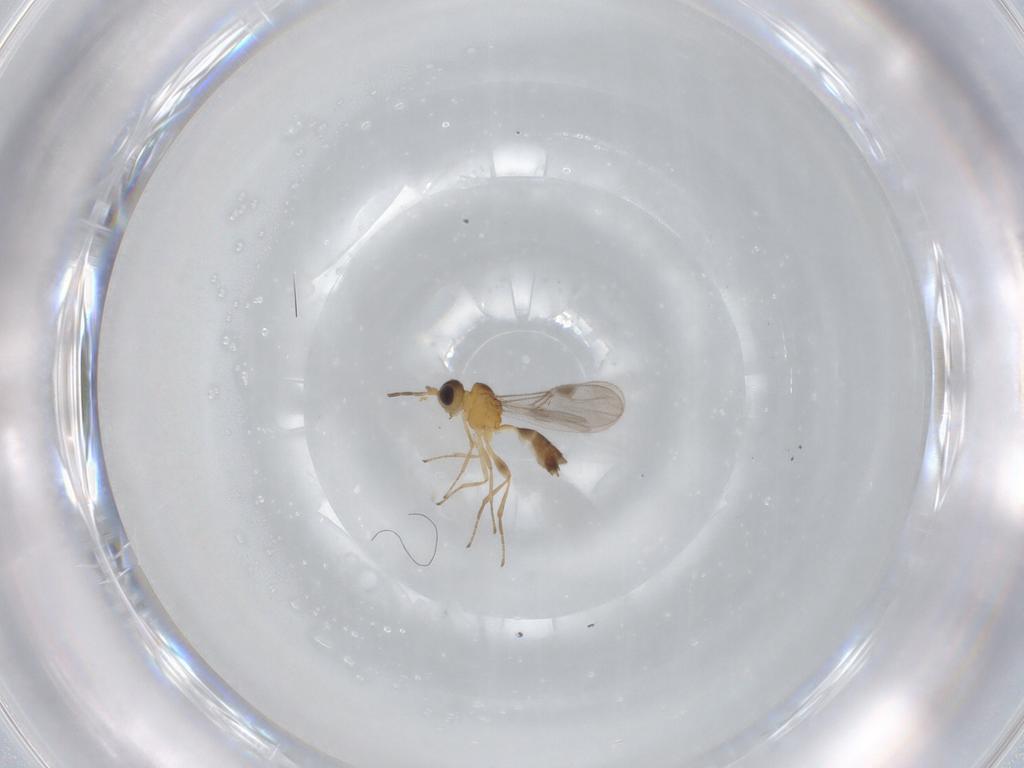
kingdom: Animalia
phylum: Arthropoda
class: Insecta
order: Hymenoptera
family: Braconidae
